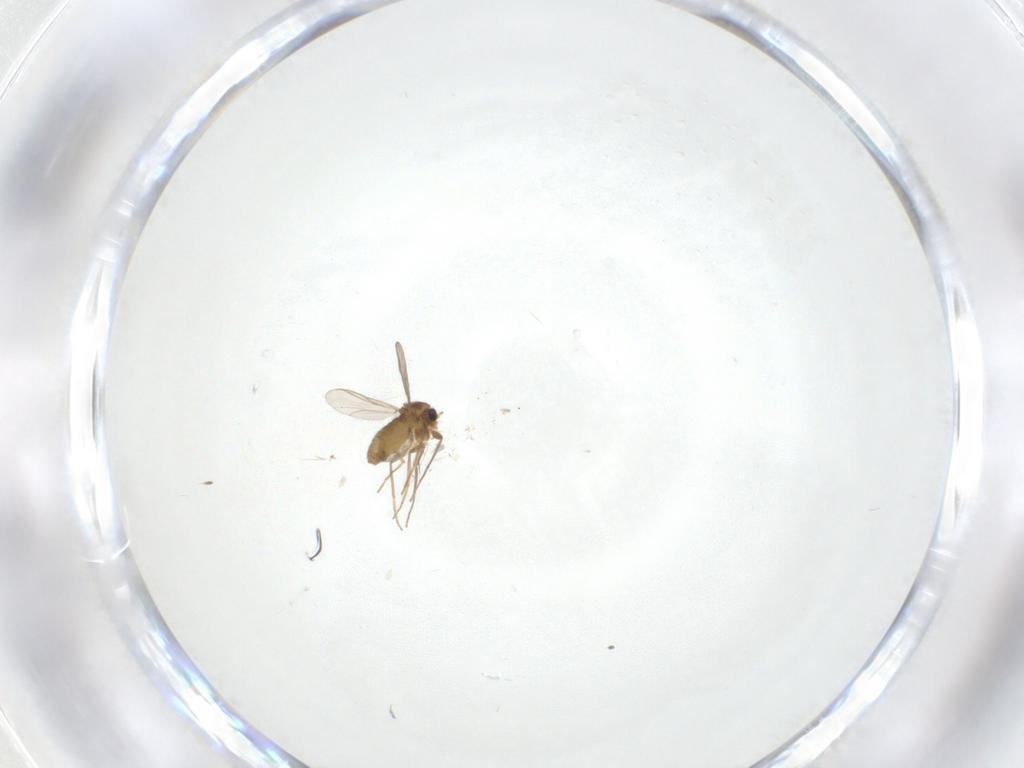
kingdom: Animalia
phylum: Arthropoda
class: Insecta
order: Diptera
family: Chironomidae
